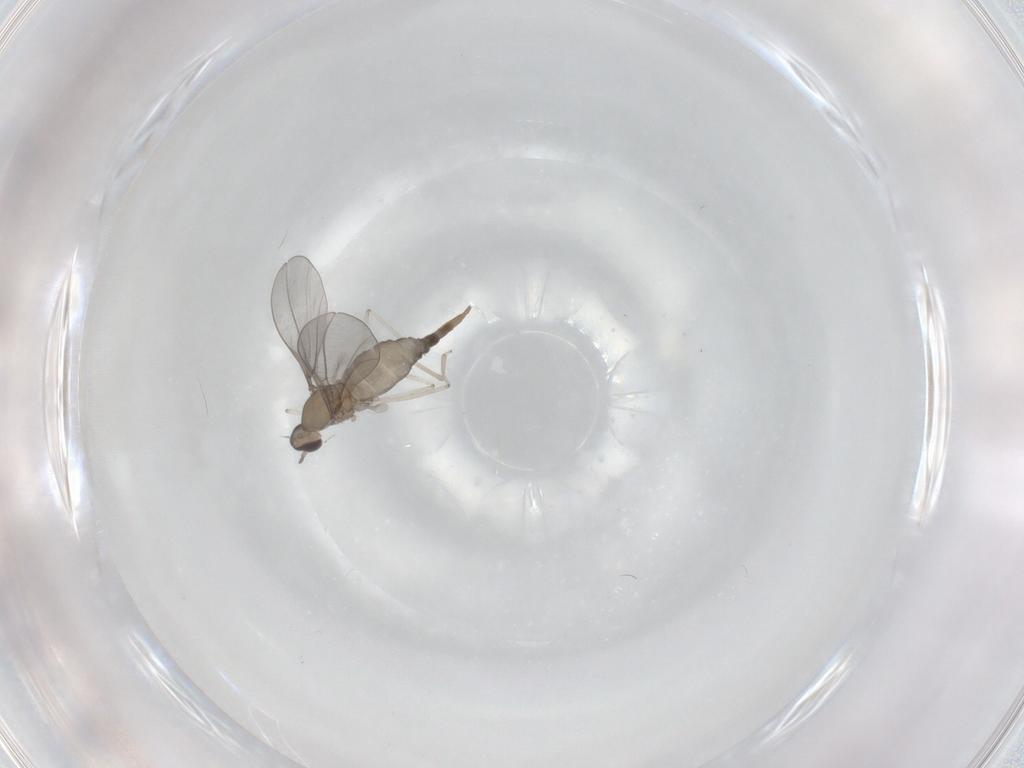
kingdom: Animalia
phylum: Arthropoda
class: Insecta
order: Diptera
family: Cecidomyiidae
